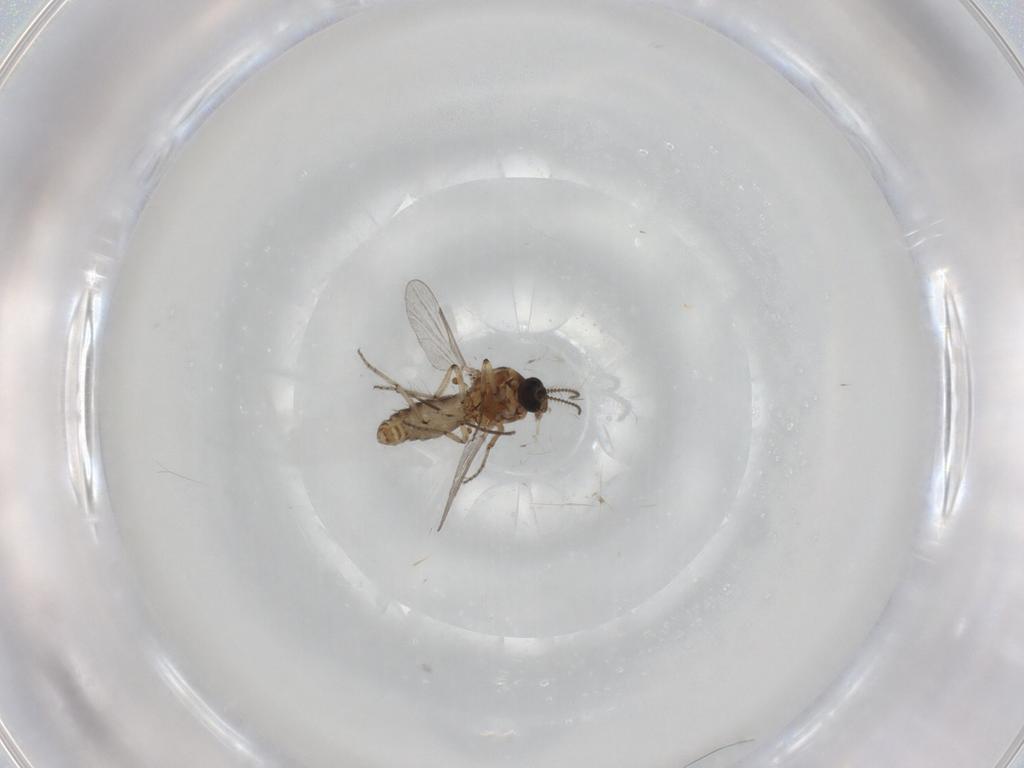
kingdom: Animalia
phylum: Arthropoda
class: Insecta
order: Diptera
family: Ceratopogonidae
